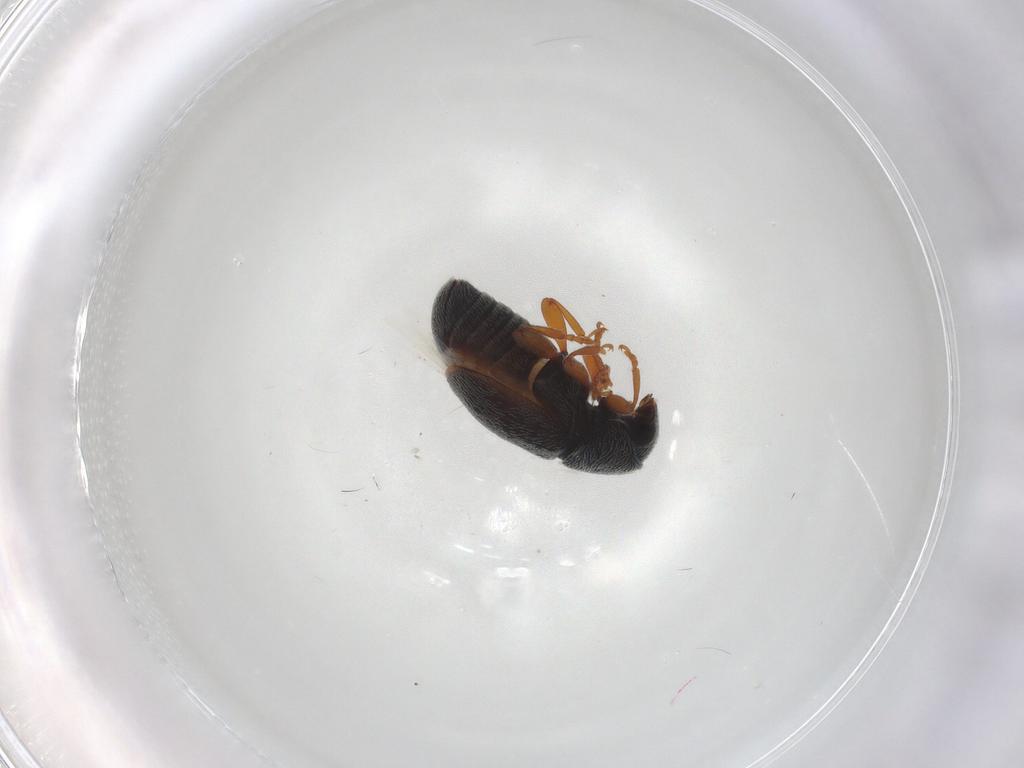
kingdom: Animalia
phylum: Arthropoda
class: Insecta
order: Coleoptera
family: Anthribidae
